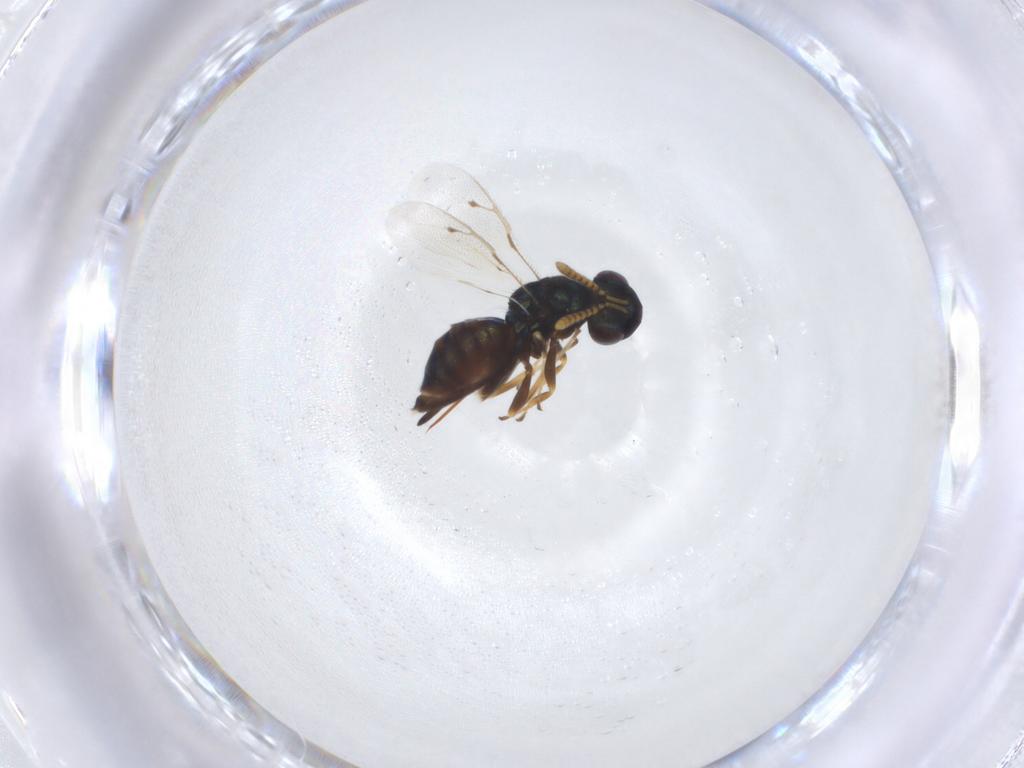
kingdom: Animalia
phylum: Arthropoda
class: Insecta
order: Hymenoptera
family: Pteromalidae
